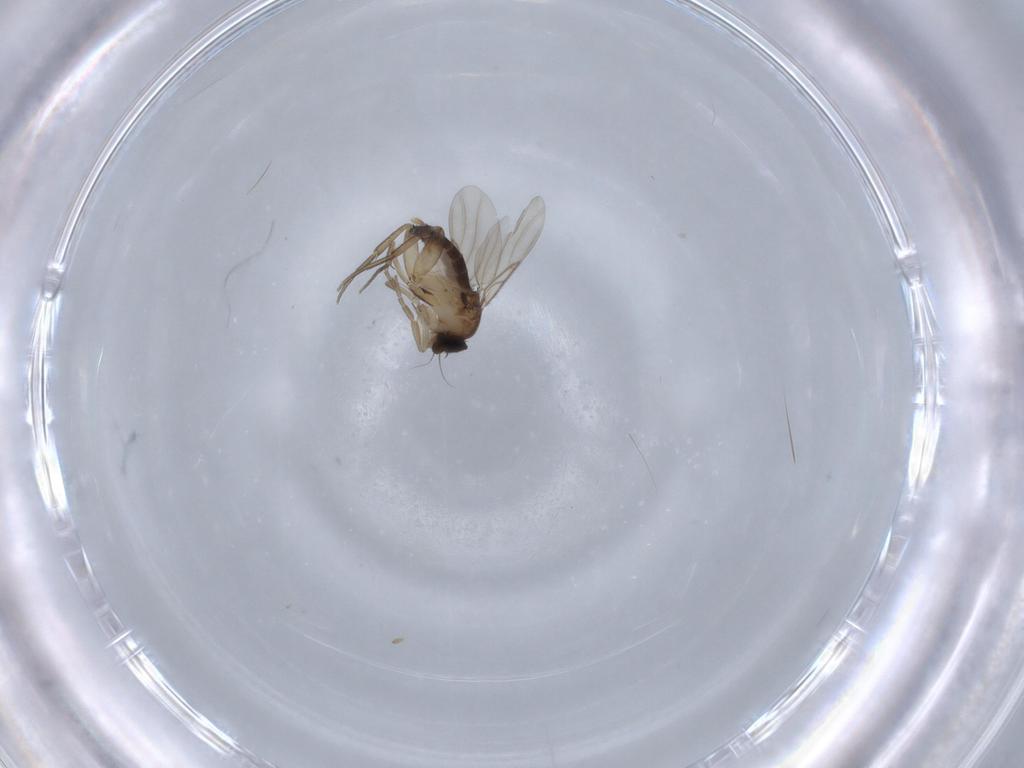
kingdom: Animalia
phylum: Arthropoda
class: Insecta
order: Diptera
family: Phoridae
